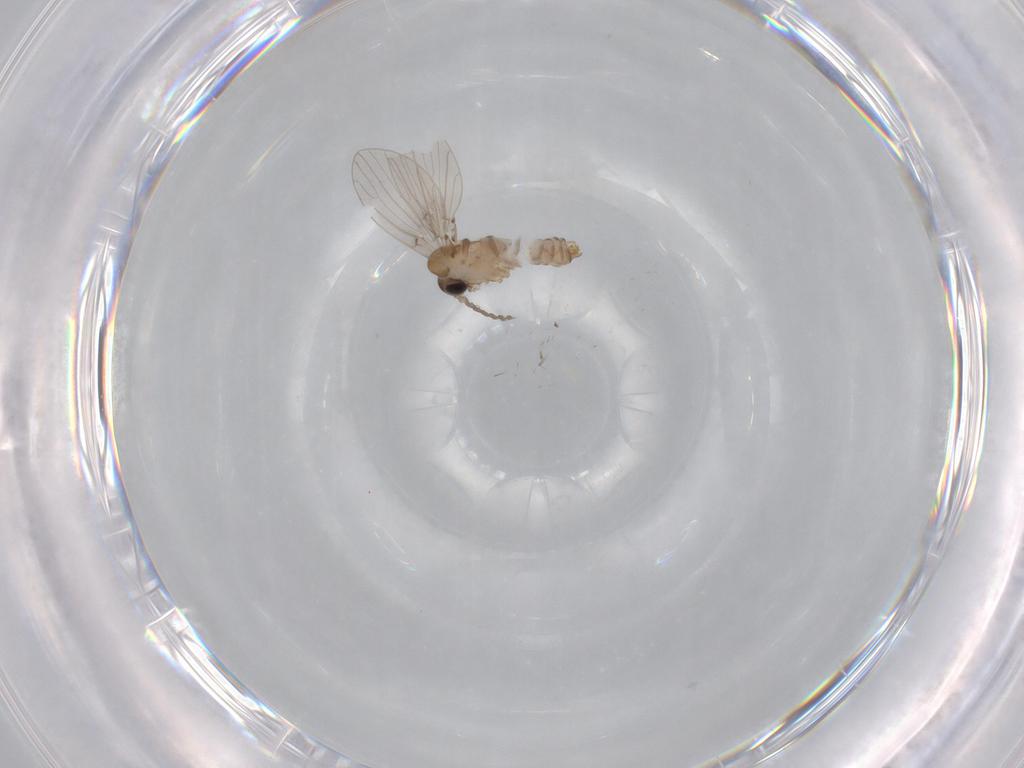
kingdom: Animalia
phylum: Arthropoda
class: Insecta
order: Diptera
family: Psychodidae
